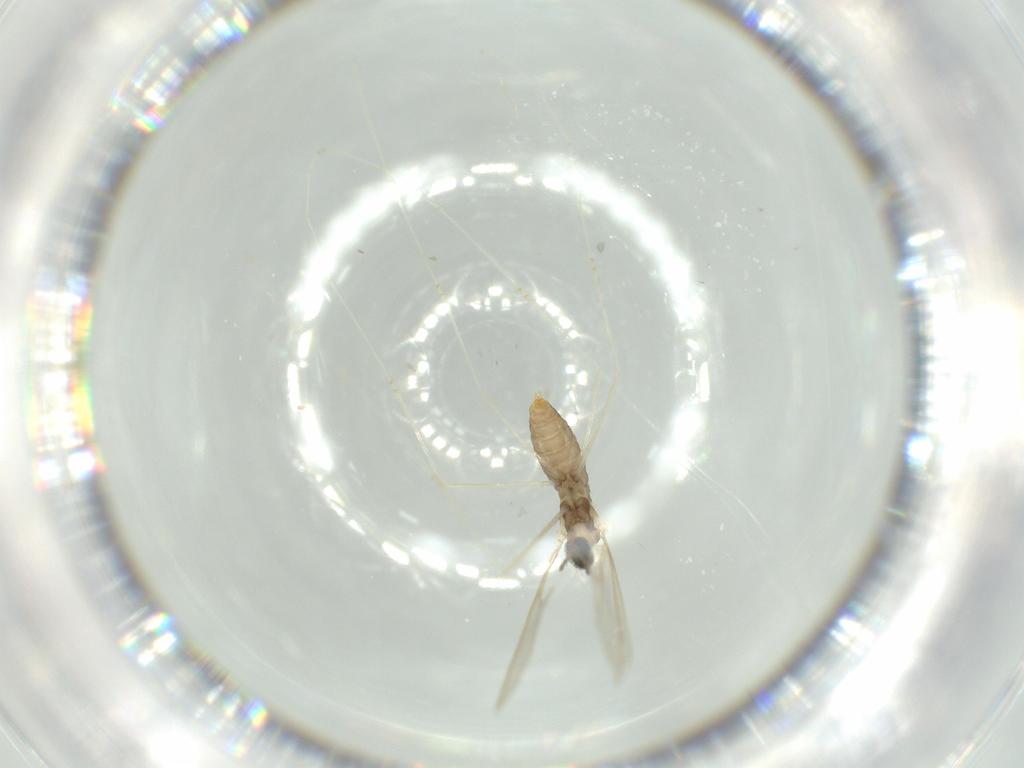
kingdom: Animalia
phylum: Arthropoda
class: Insecta
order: Diptera
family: Cecidomyiidae
